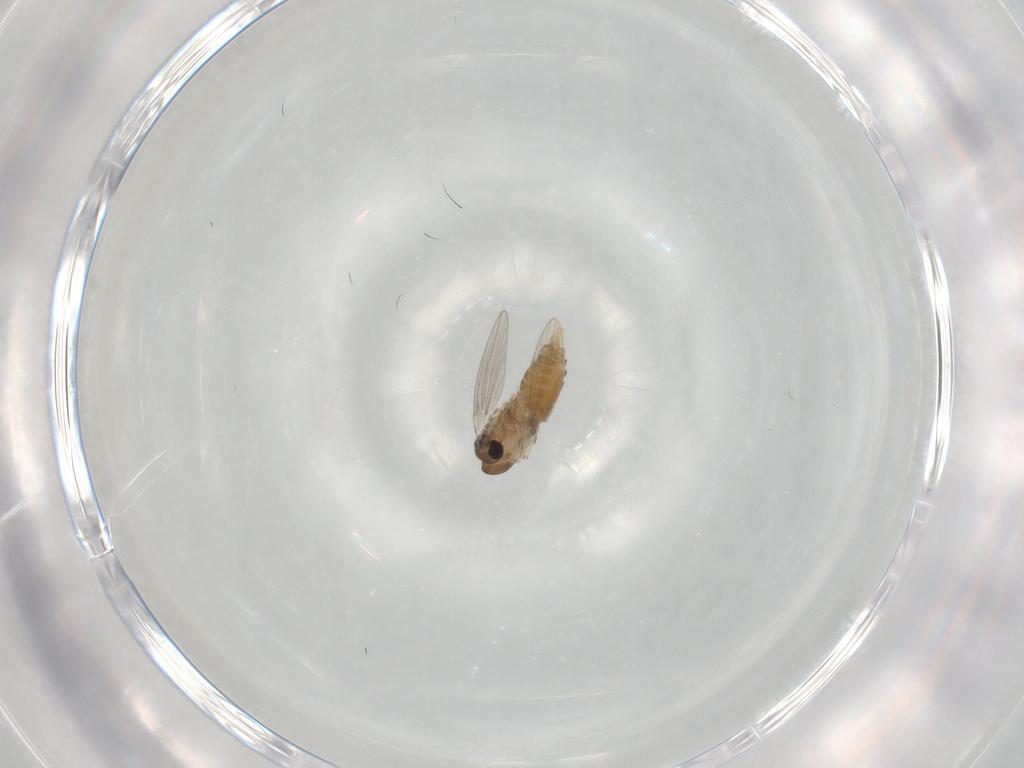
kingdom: Animalia
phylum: Arthropoda
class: Insecta
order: Diptera
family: Psychodidae
